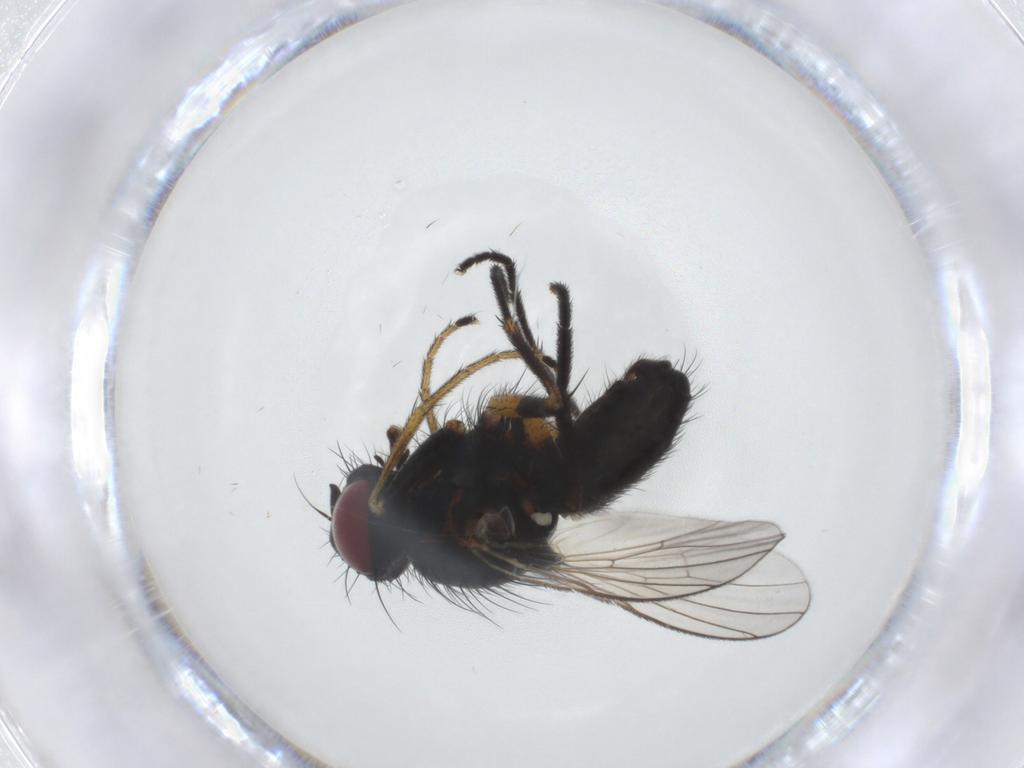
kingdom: Animalia
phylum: Arthropoda
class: Insecta
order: Diptera
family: Muscidae
